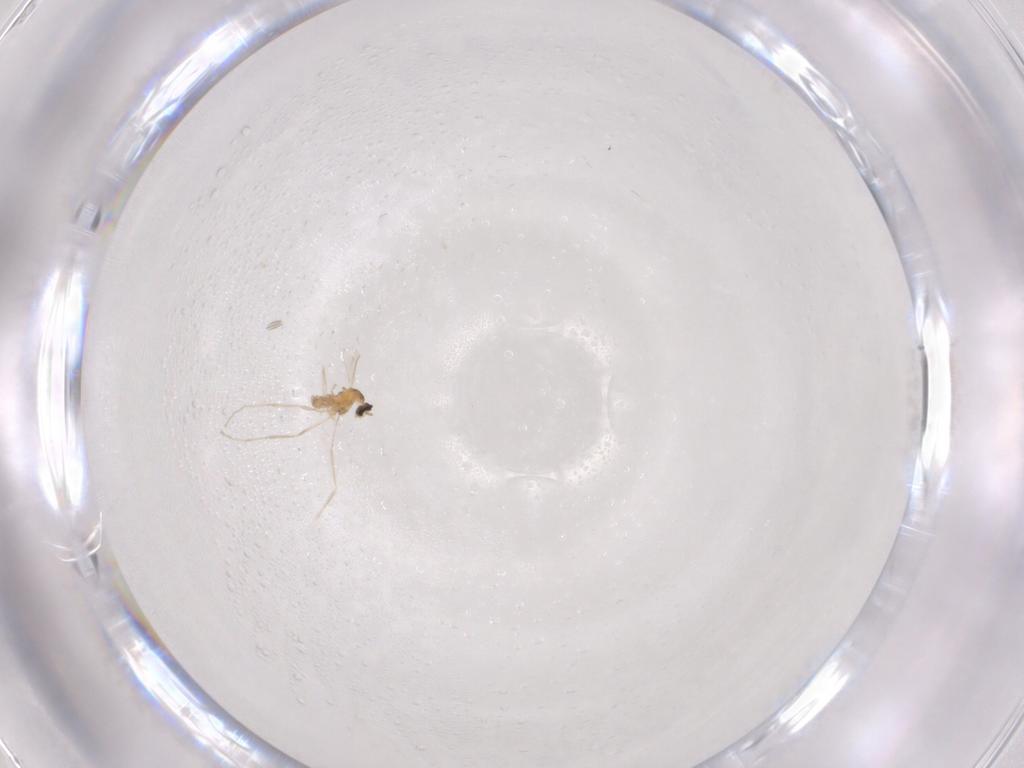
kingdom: Animalia
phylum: Arthropoda
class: Insecta
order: Diptera
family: Cecidomyiidae
